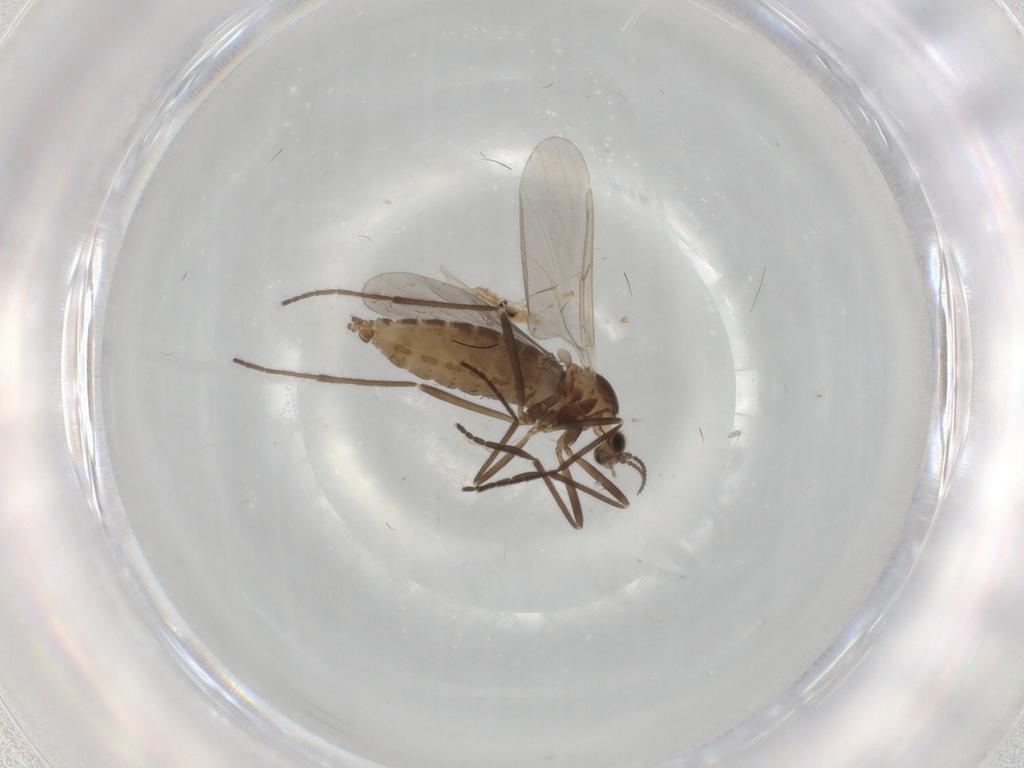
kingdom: Animalia
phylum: Arthropoda
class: Insecta
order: Diptera
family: Cecidomyiidae
